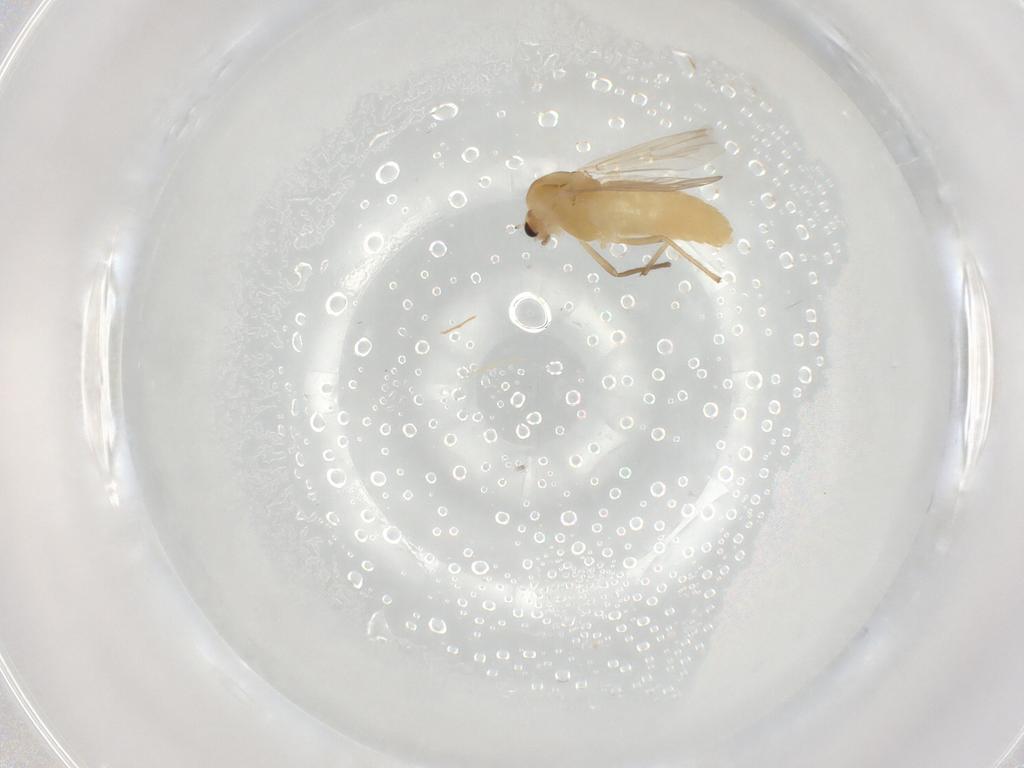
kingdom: Animalia
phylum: Arthropoda
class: Insecta
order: Diptera
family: Chironomidae
